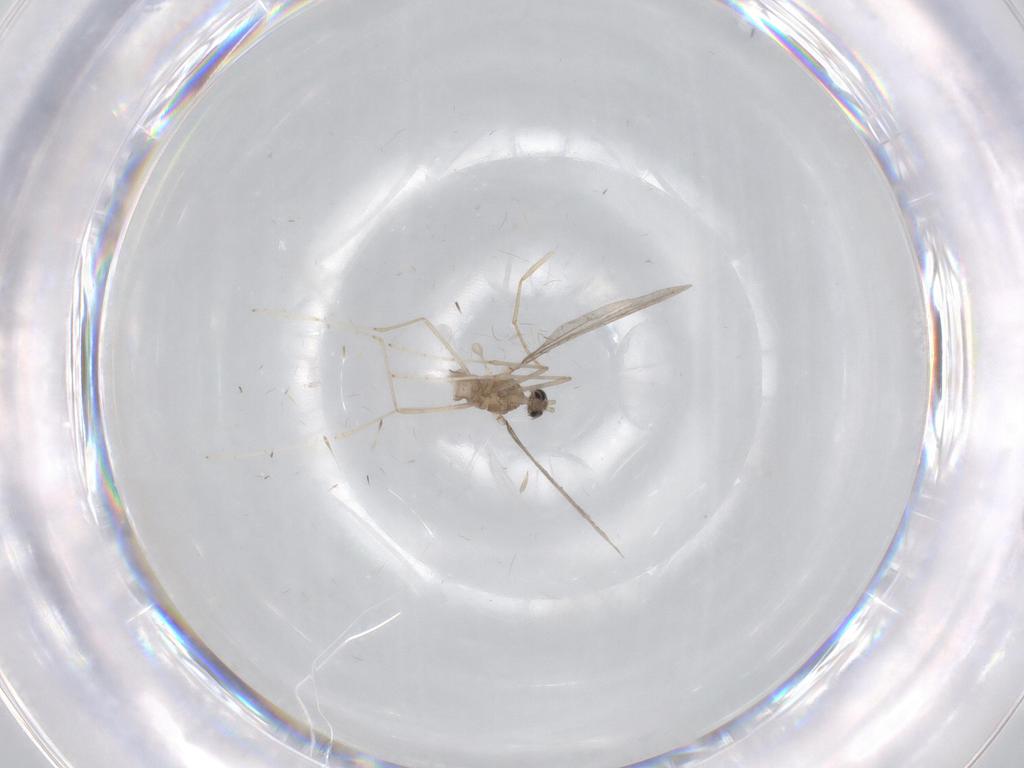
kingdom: Animalia
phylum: Arthropoda
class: Insecta
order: Diptera
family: Cecidomyiidae
